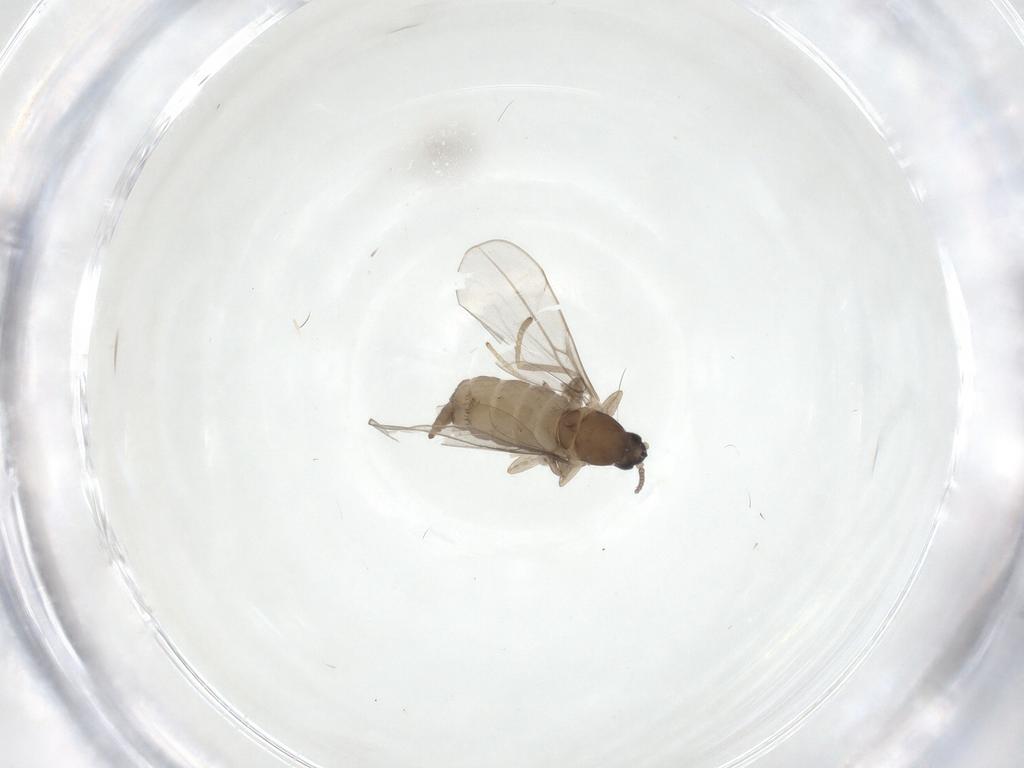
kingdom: Animalia
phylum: Arthropoda
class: Insecta
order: Diptera
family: Cecidomyiidae
